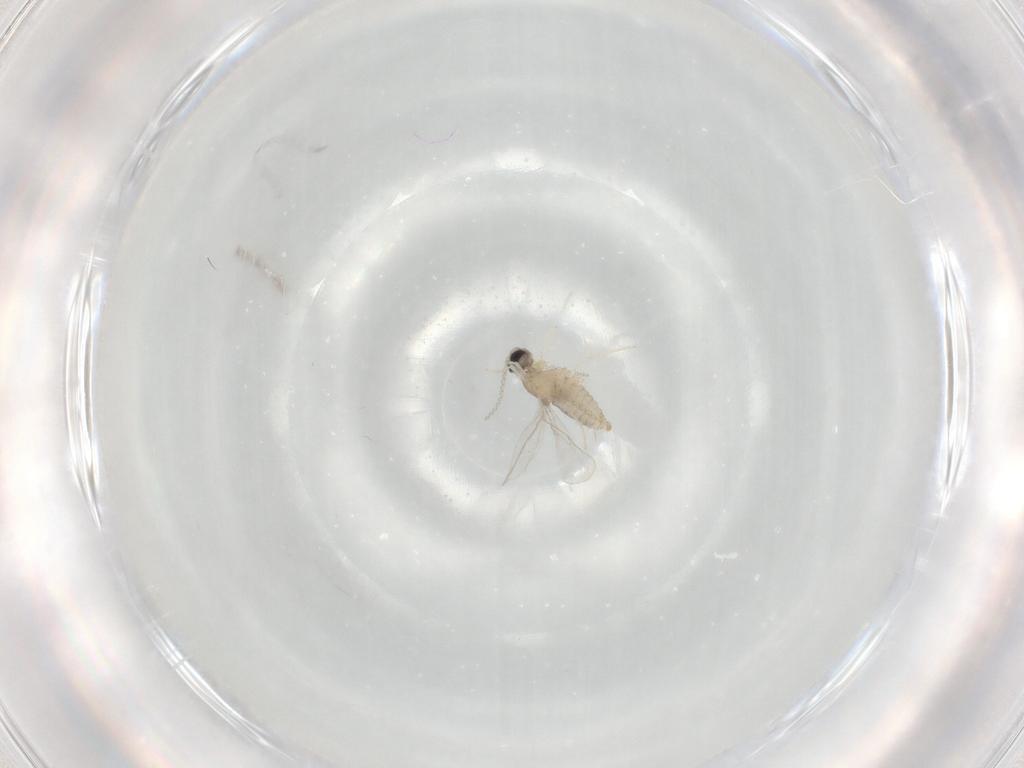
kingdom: Animalia
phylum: Arthropoda
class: Insecta
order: Diptera
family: Cecidomyiidae
